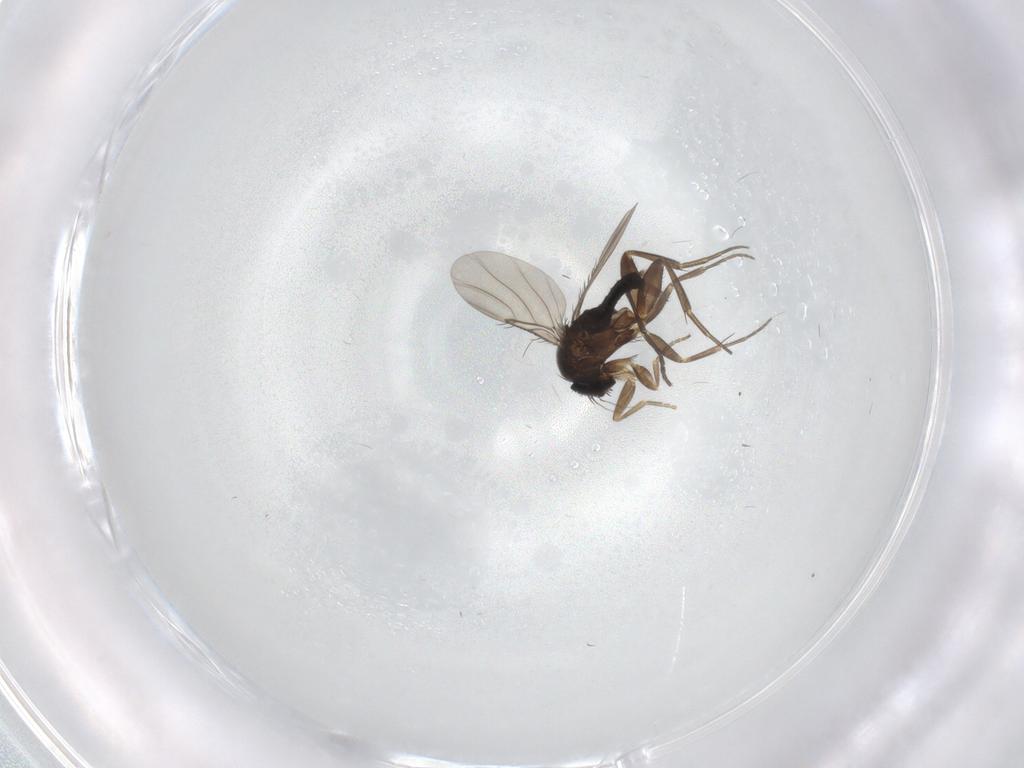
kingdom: Animalia
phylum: Arthropoda
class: Insecta
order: Diptera
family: Phoridae
